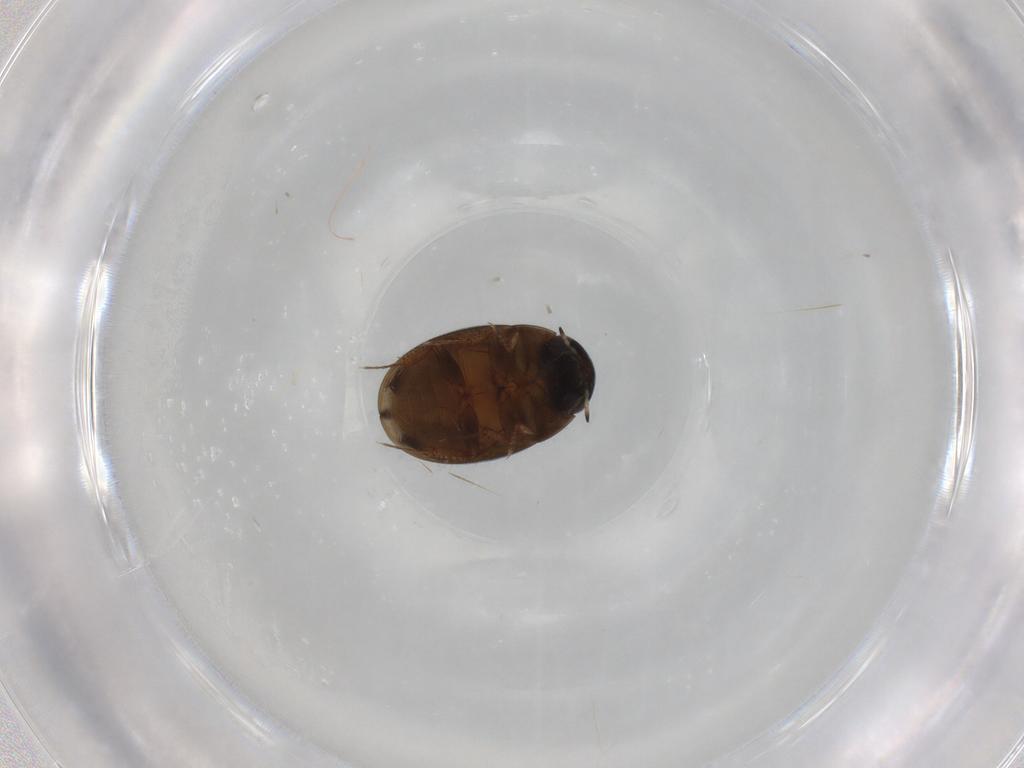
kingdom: Animalia
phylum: Arthropoda
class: Insecta
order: Coleoptera
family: Hydrophilidae
